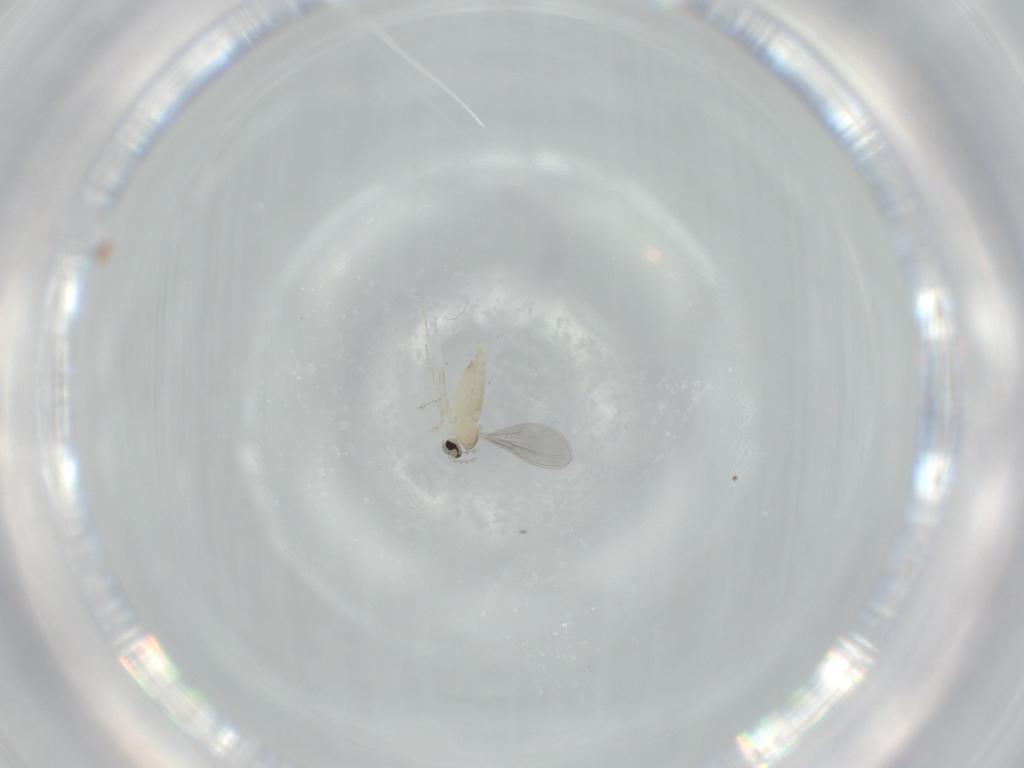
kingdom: Animalia
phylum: Arthropoda
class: Insecta
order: Diptera
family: Cecidomyiidae
